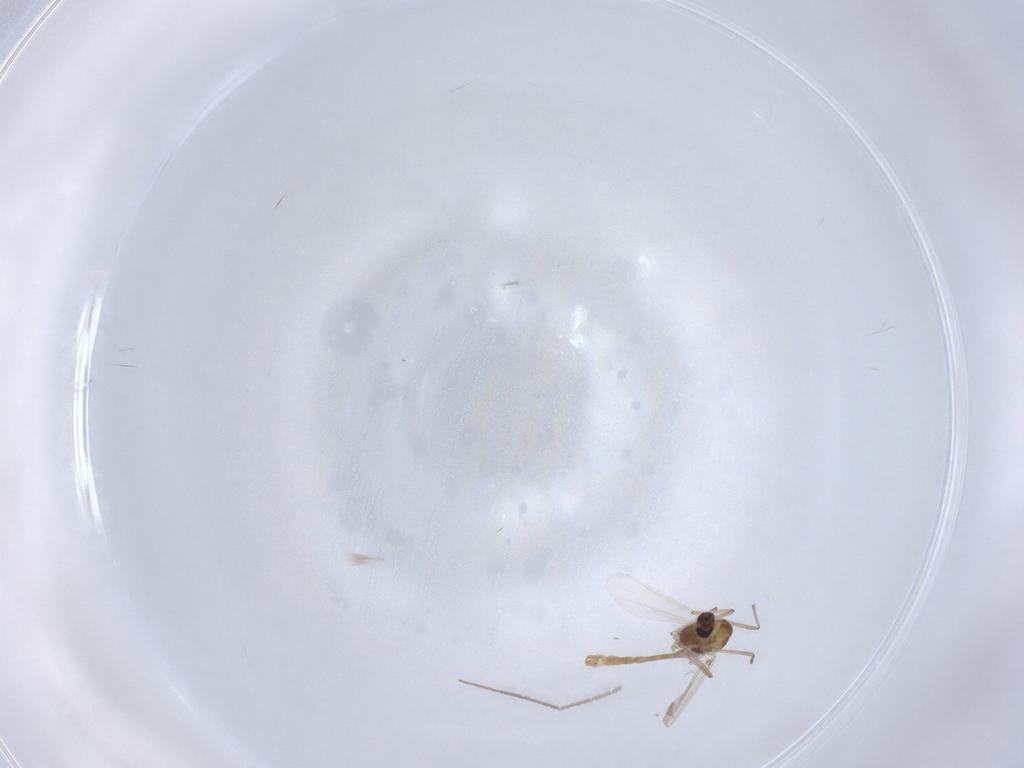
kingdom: Animalia
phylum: Arthropoda
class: Insecta
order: Diptera
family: Chironomidae
